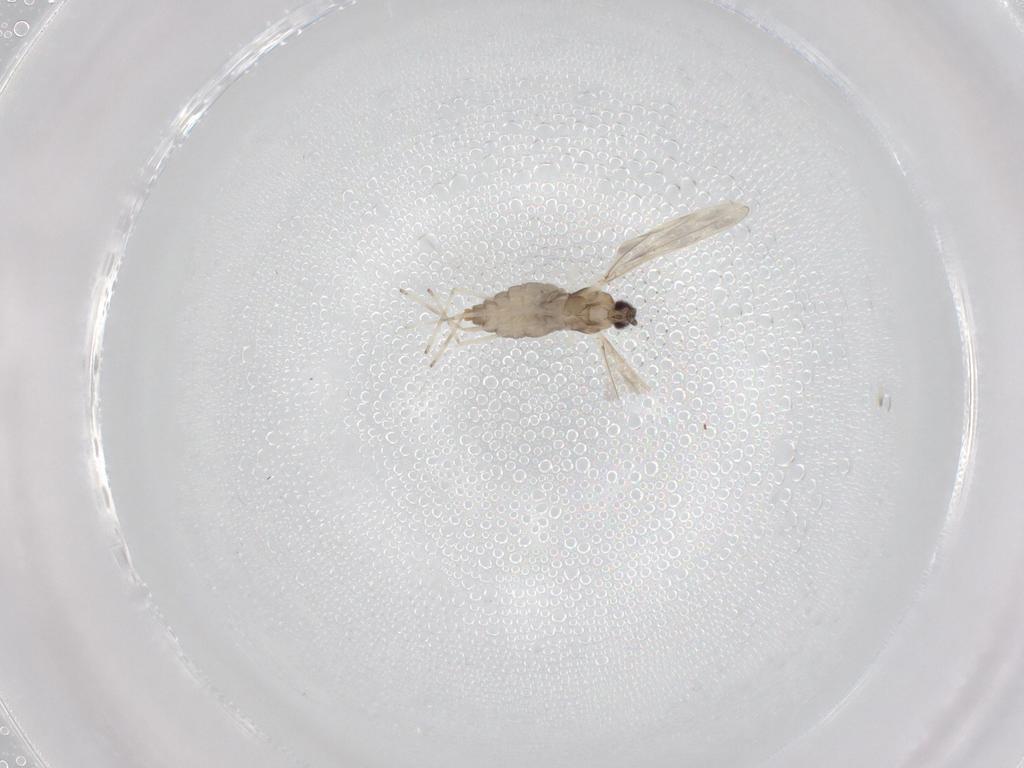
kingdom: Animalia
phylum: Arthropoda
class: Insecta
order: Diptera
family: Cecidomyiidae
